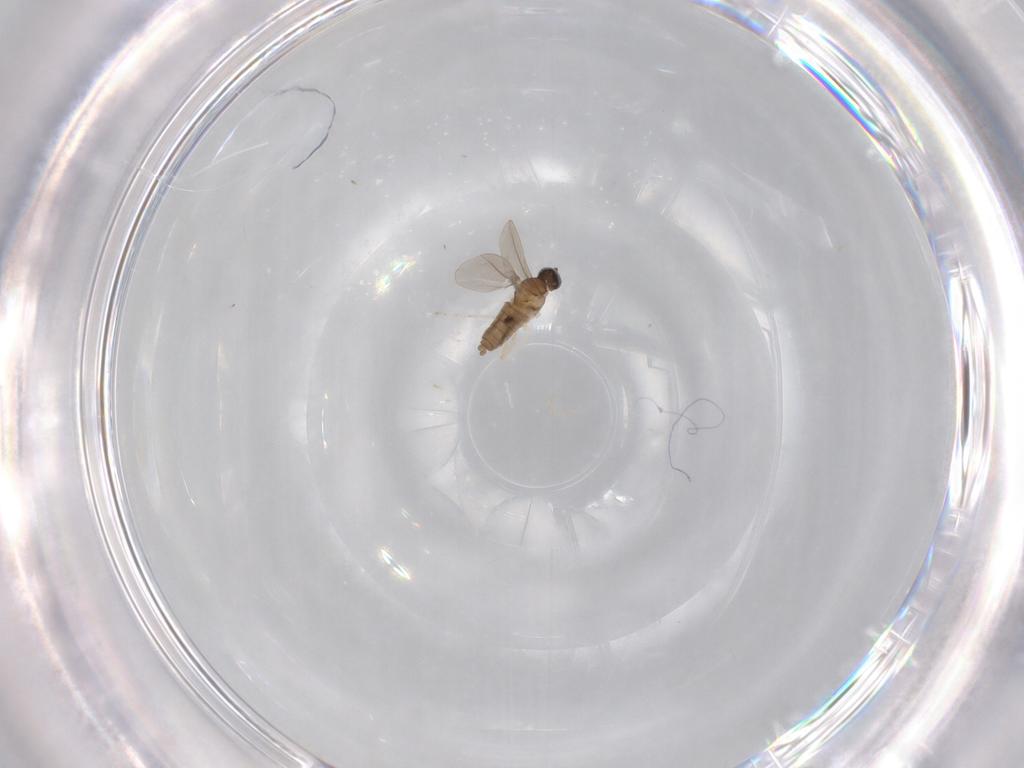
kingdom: Animalia
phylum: Arthropoda
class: Insecta
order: Diptera
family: Cecidomyiidae
